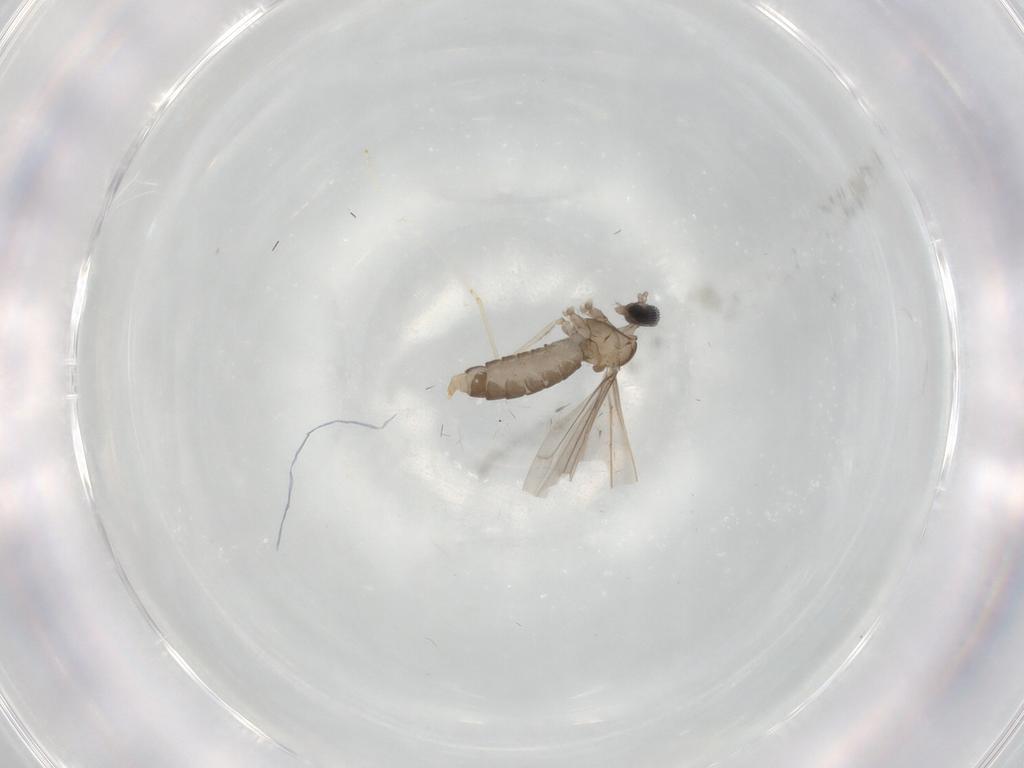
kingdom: Animalia
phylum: Arthropoda
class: Insecta
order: Diptera
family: Cecidomyiidae
